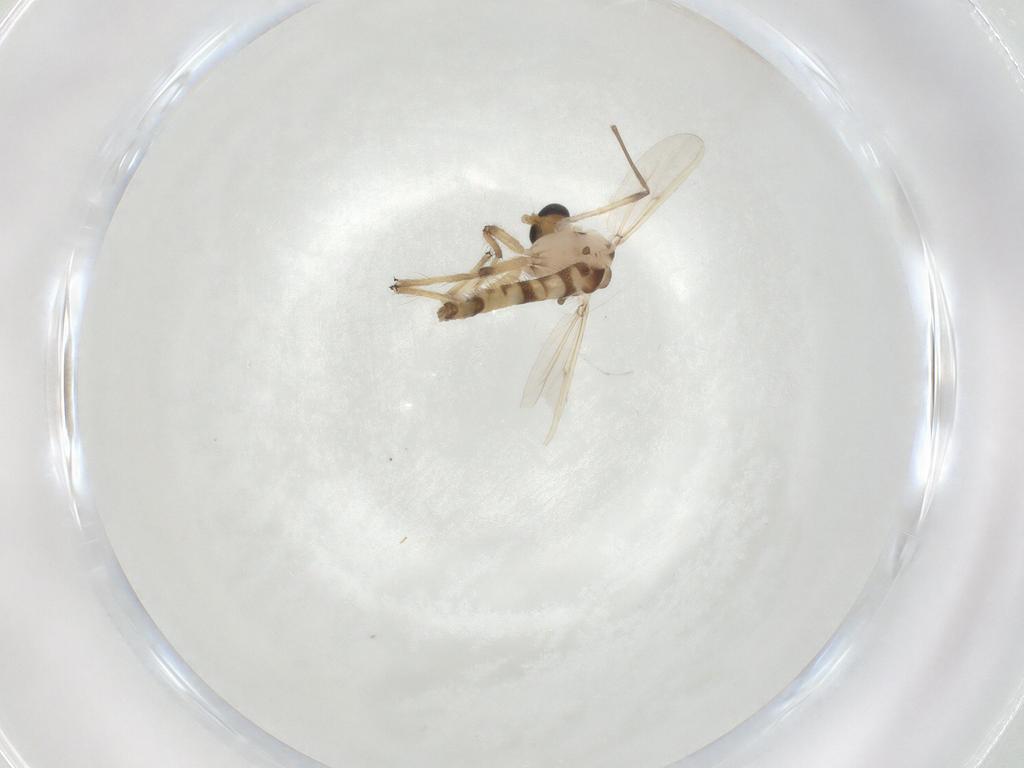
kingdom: Animalia
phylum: Arthropoda
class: Insecta
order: Diptera
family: Chironomidae
